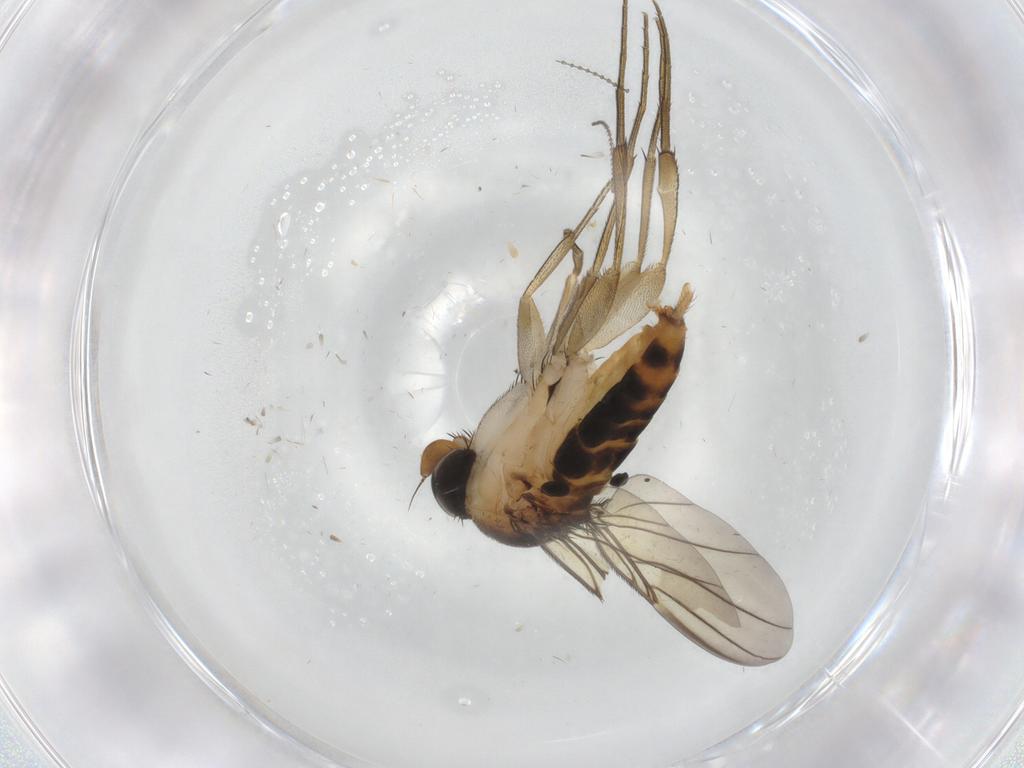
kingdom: Animalia
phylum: Arthropoda
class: Insecta
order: Diptera
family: Phoridae
